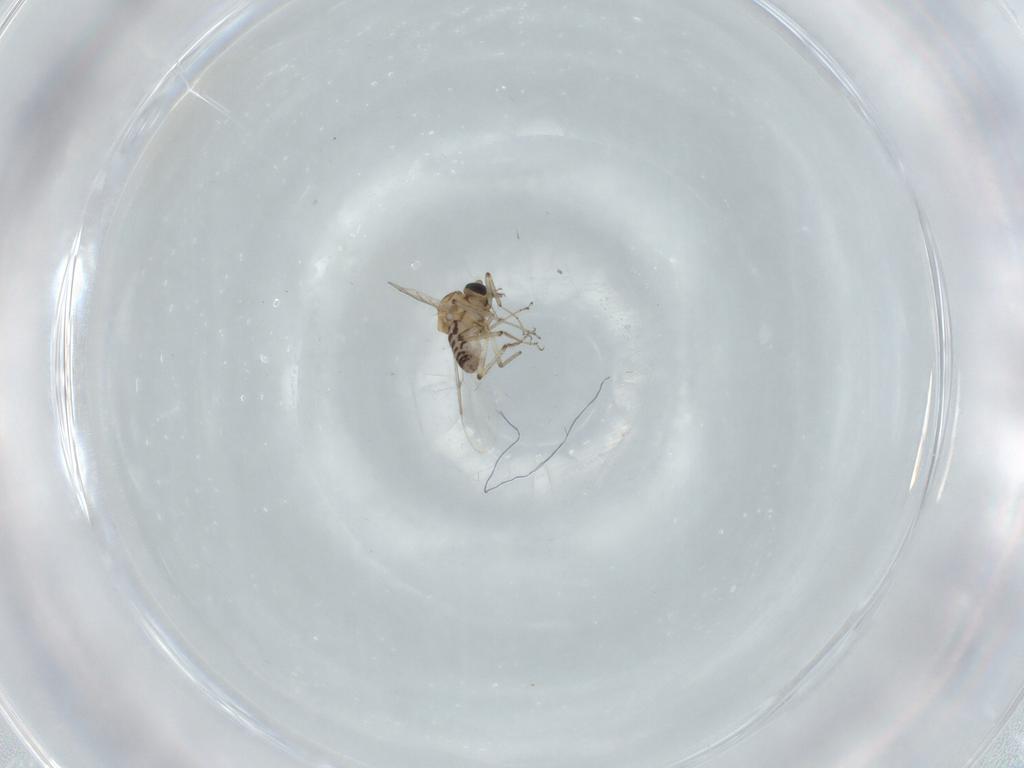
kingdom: Animalia
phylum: Arthropoda
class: Insecta
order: Diptera
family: Ceratopogonidae
